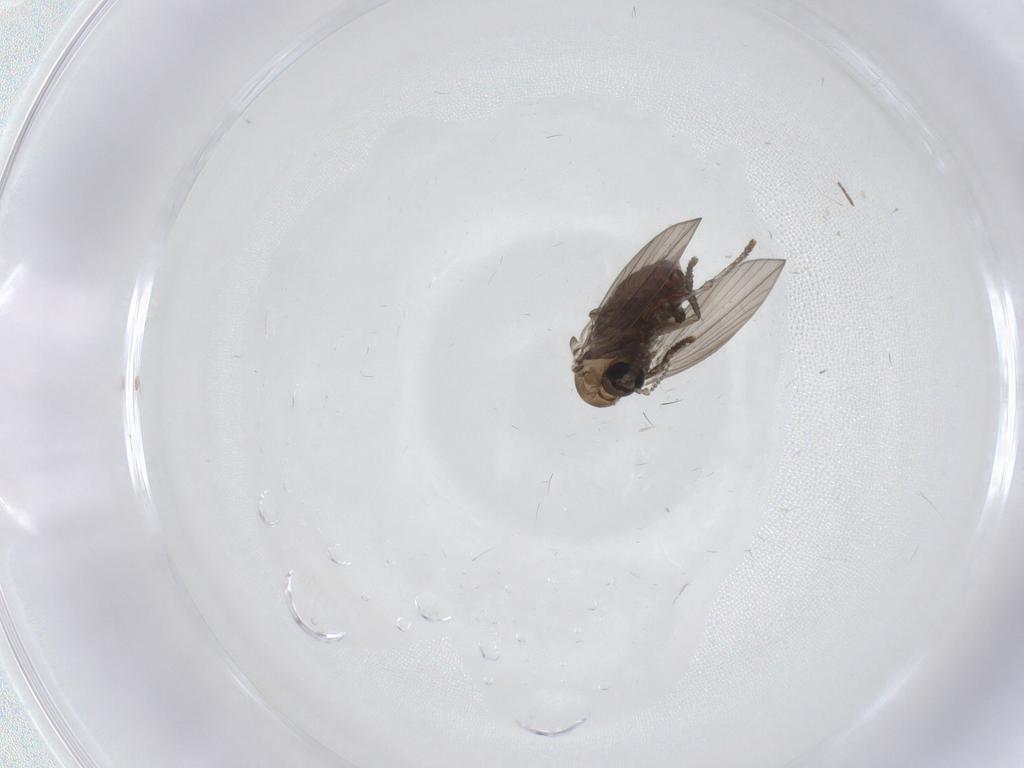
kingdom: Animalia
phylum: Arthropoda
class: Insecta
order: Diptera
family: Psychodidae
